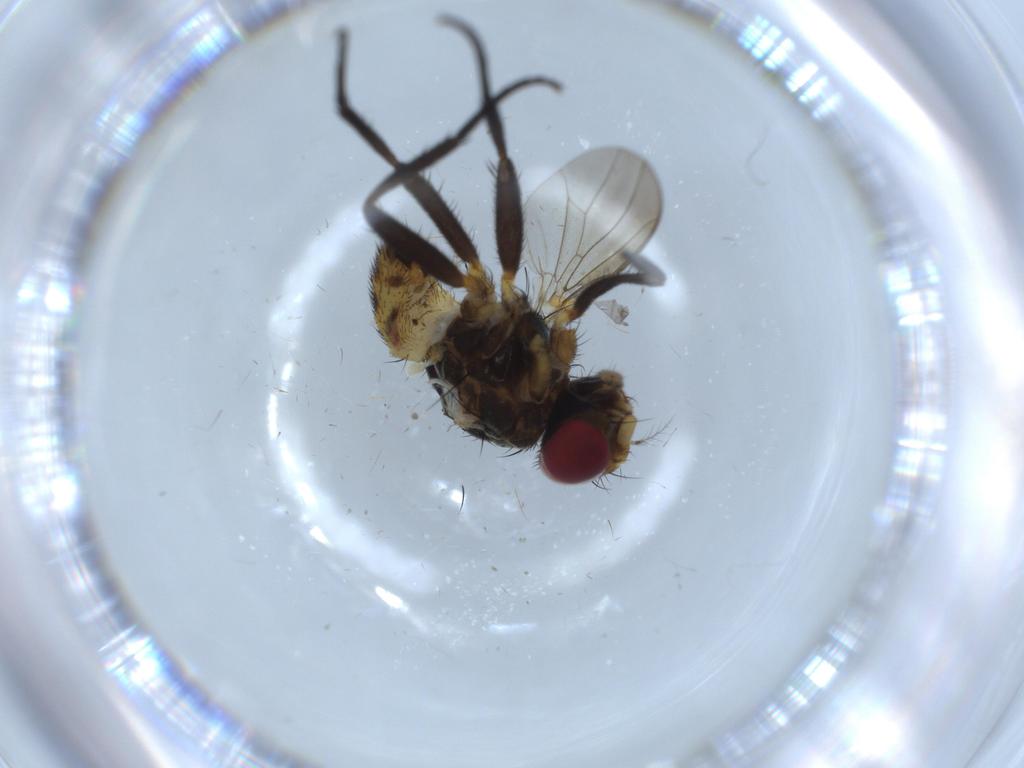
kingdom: Animalia
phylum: Arthropoda
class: Insecta
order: Diptera
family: Anthomyiidae
